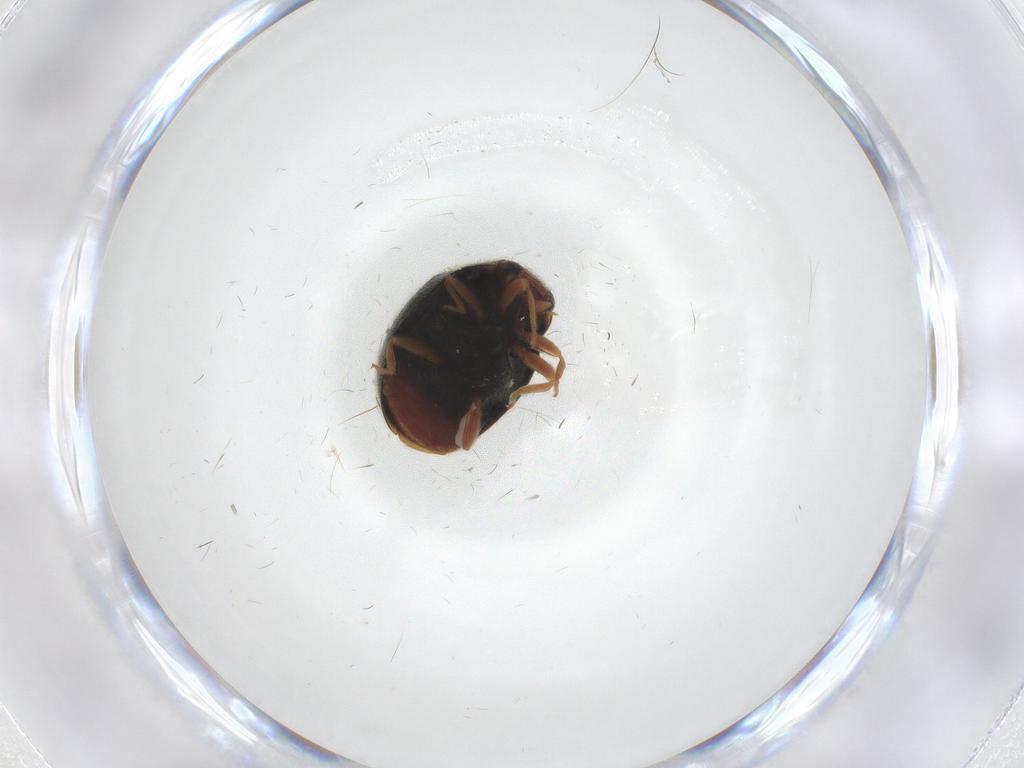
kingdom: Animalia
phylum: Arthropoda
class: Insecta
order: Coleoptera
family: Coccinellidae
